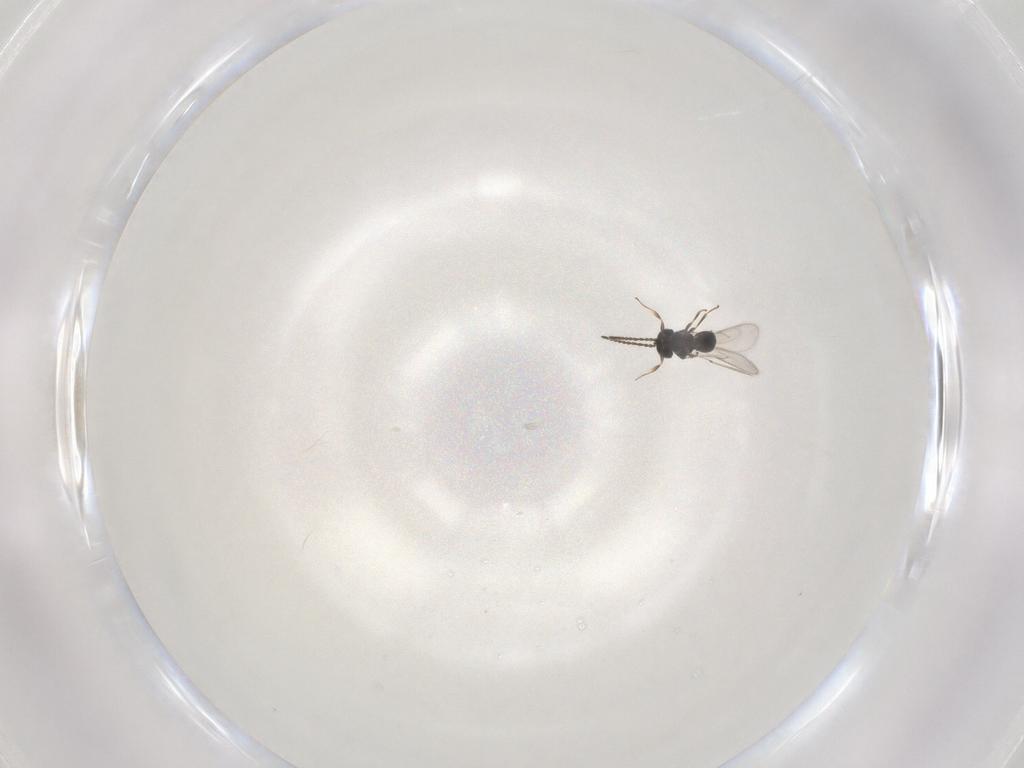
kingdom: Animalia
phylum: Arthropoda
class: Insecta
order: Hymenoptera
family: Scelionidae
